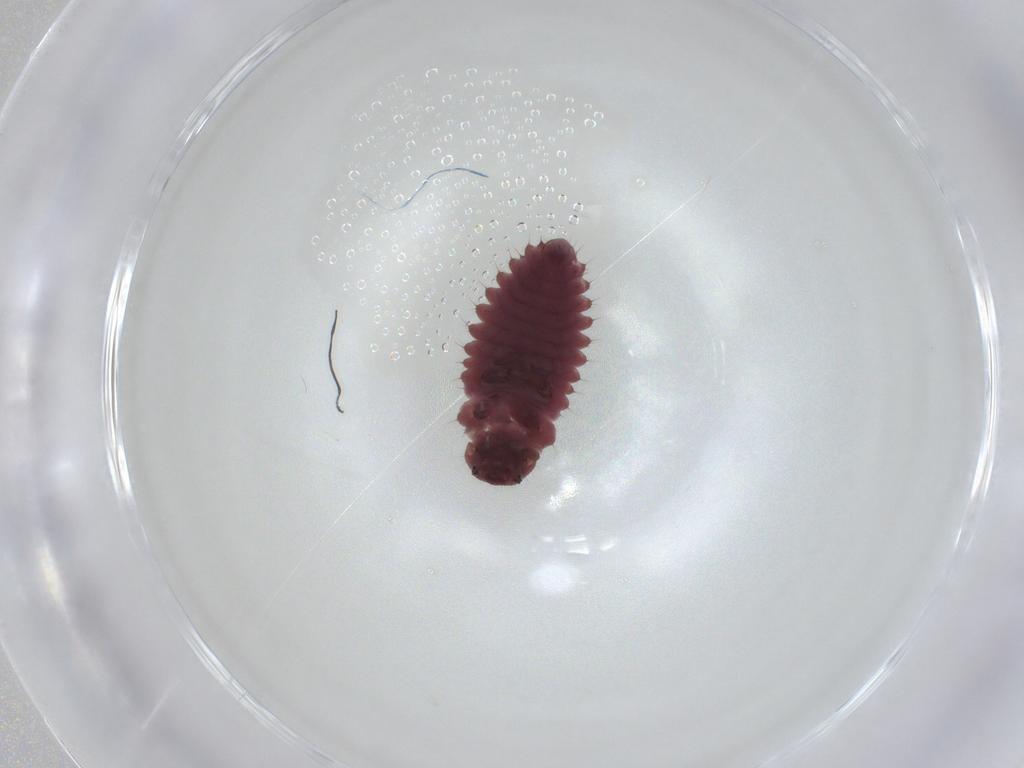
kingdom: Animalia
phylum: Arthropoda
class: Insecta
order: Coleoptera
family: Coccinellidae
